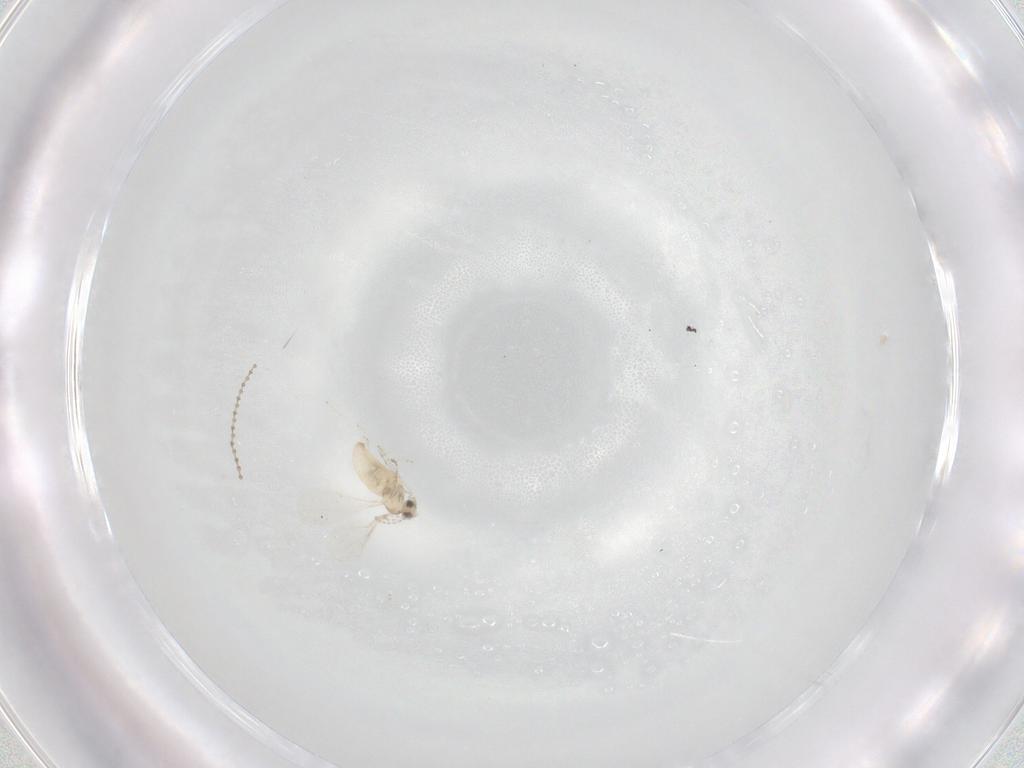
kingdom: Animalia
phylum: Arthropoda
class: Insecta
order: Diptera
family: Cecidomyiidae
